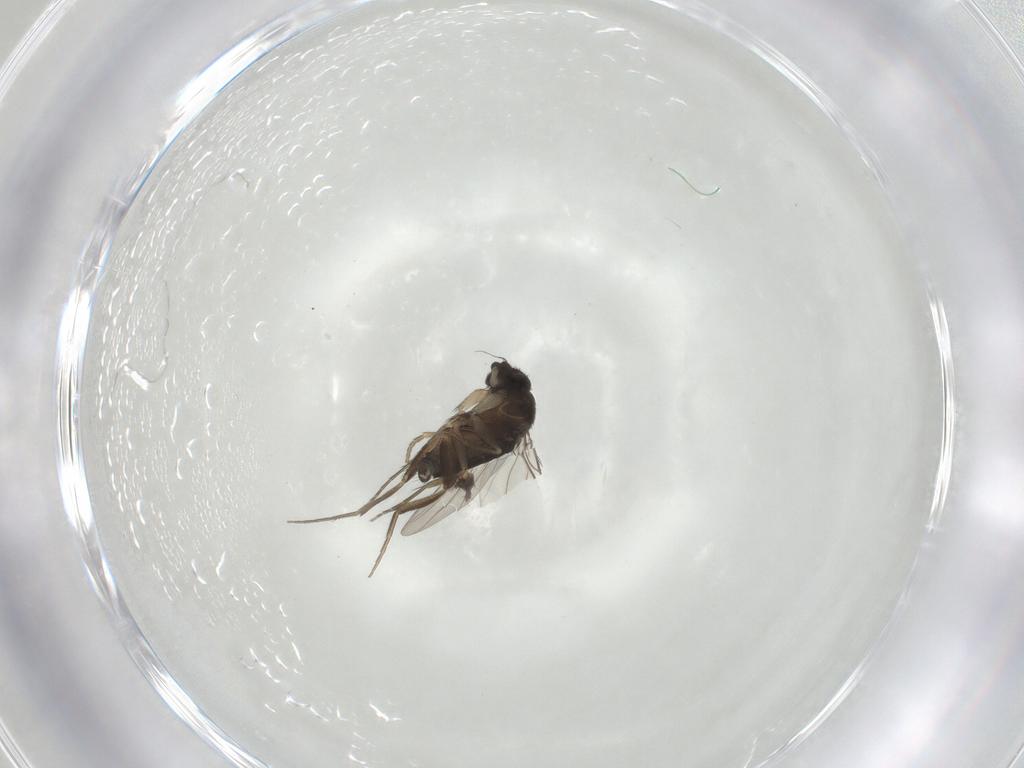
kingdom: Animalia
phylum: Arthropoda
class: Insecta
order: Diptera
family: Phoridae
